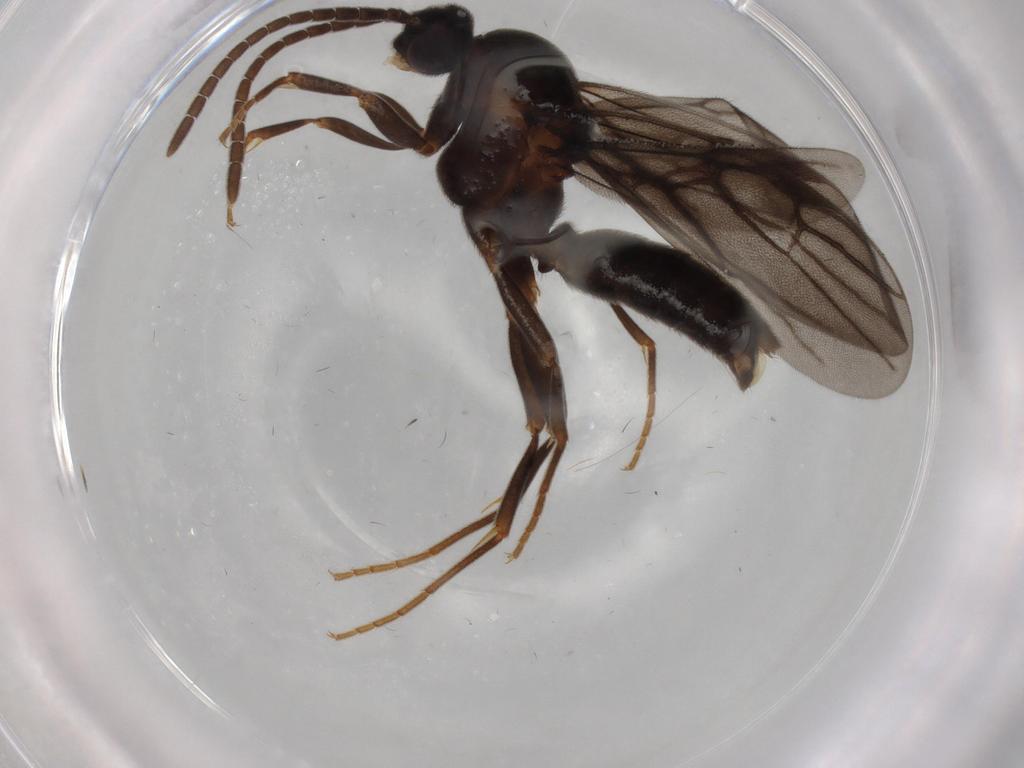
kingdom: Animalia
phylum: Arthropoda
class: Insecta
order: Hymenoptera
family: Formicidae
